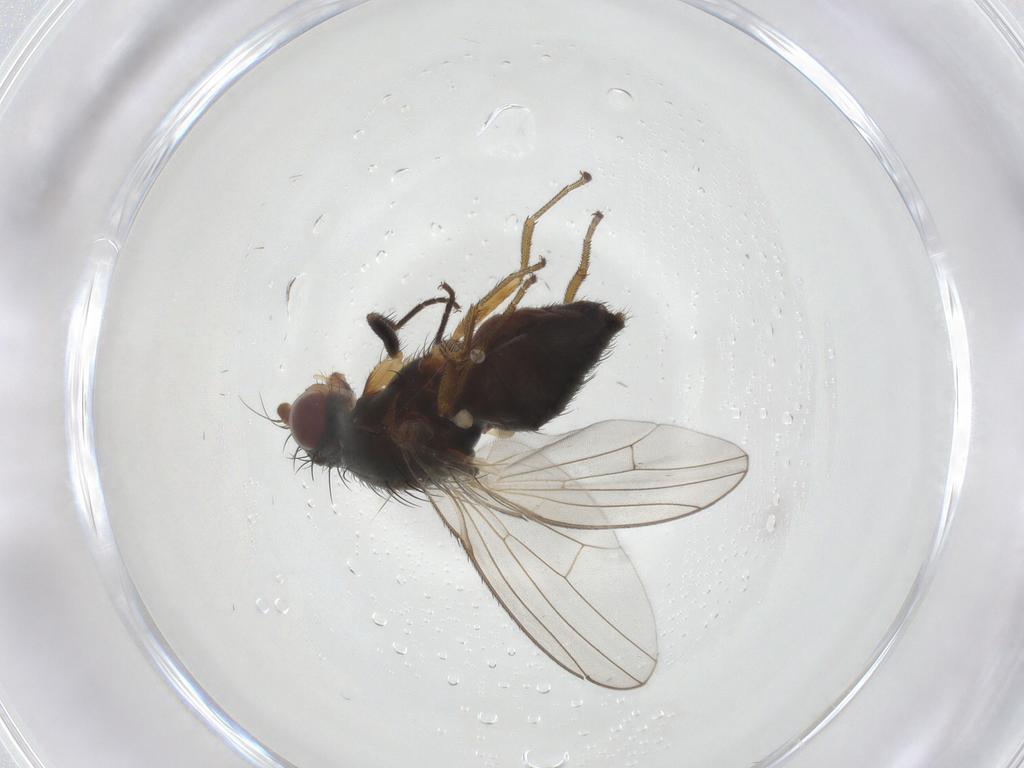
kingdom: Animalia
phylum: Arthropoda
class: Insecta
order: Diptera
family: Heleomyzidae
